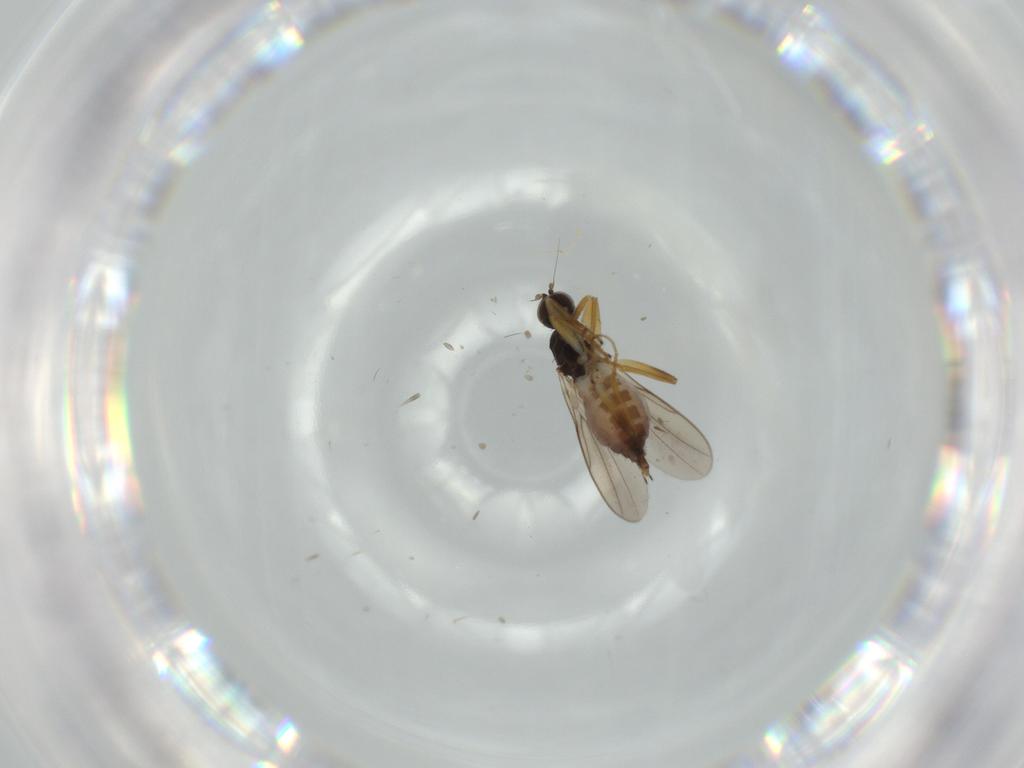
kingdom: Animalia
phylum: Arthropoda
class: Insecta
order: Diptera
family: Hybotidae
